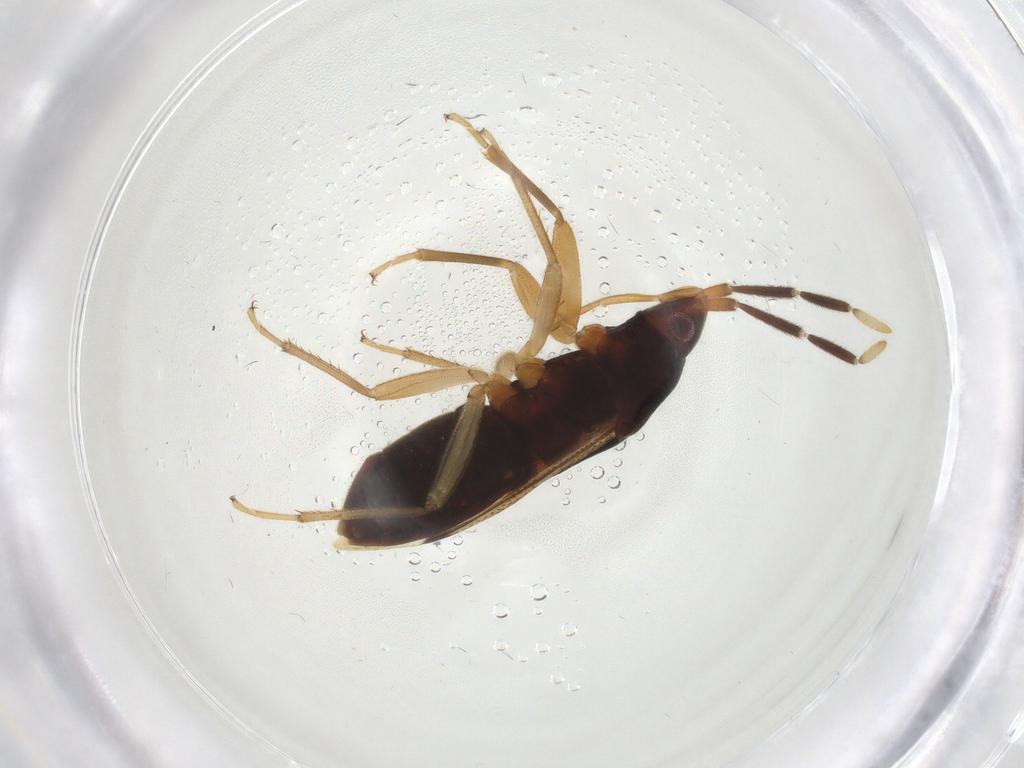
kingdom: Animalia
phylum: Arthropoda
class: Insecta
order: Hemiptera
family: Rhyparochromidae
